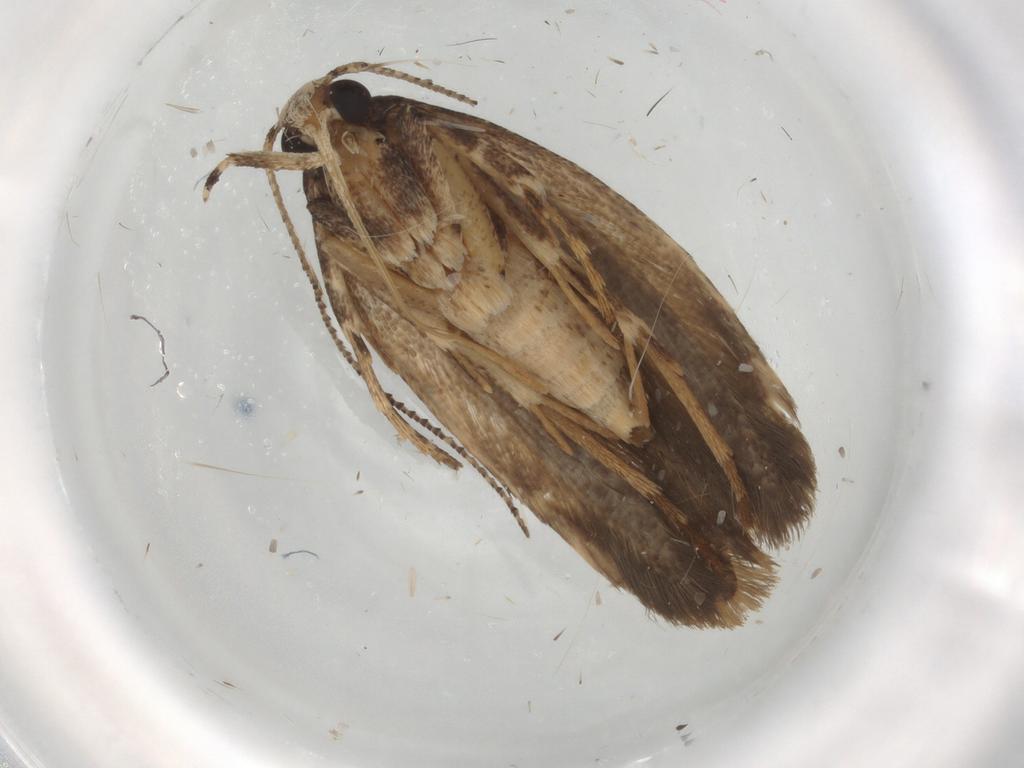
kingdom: Animalia
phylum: Arthropoda
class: Insecta
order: Lepidoptera
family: Gelechiidae
